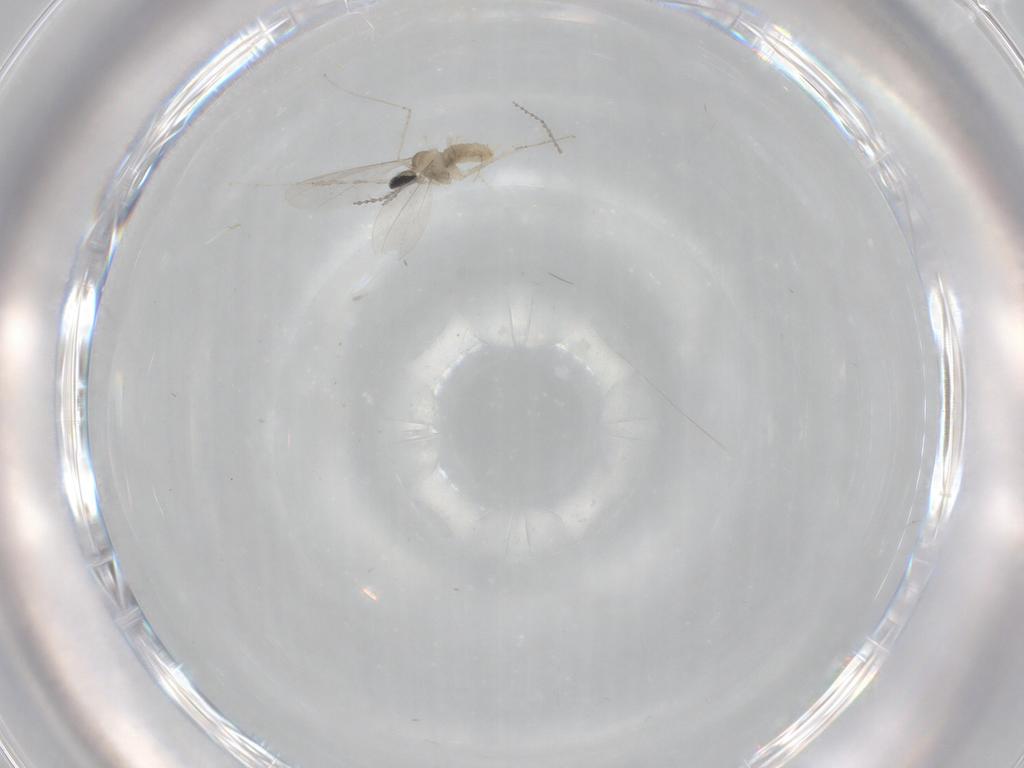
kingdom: Animalia
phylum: Arthropoda
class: Insecta
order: Diptera
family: Cecidomyiidae
